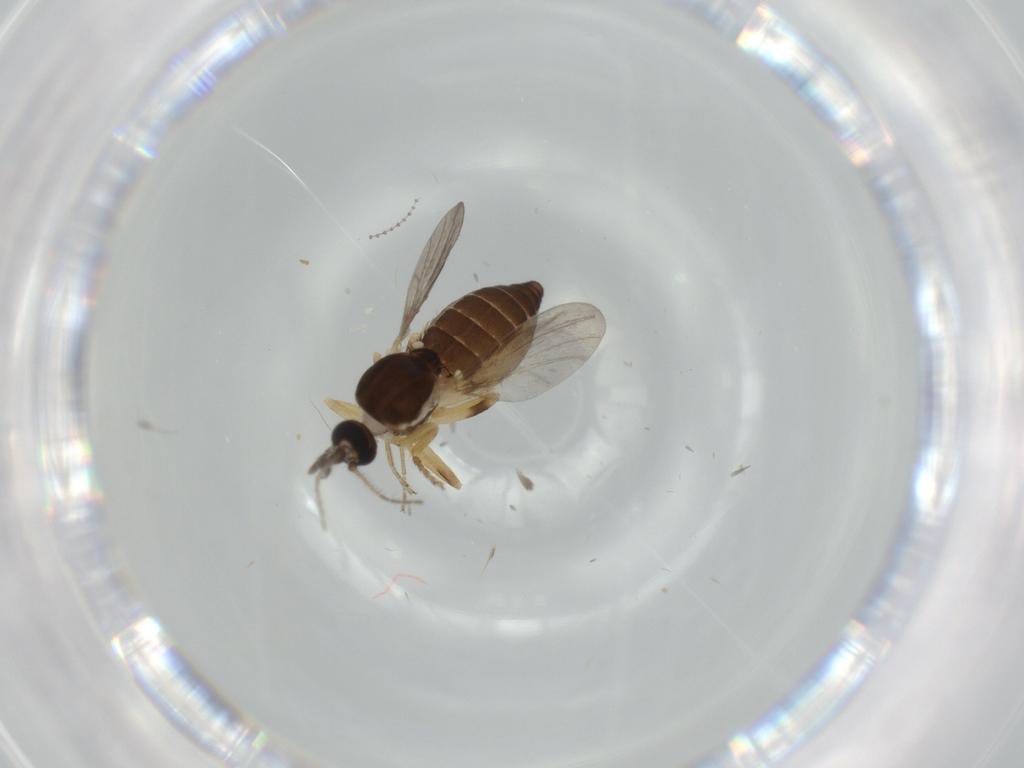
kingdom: Animalia
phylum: Arthropoda
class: Insecta
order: Diptera
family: Ceratopogonidae
